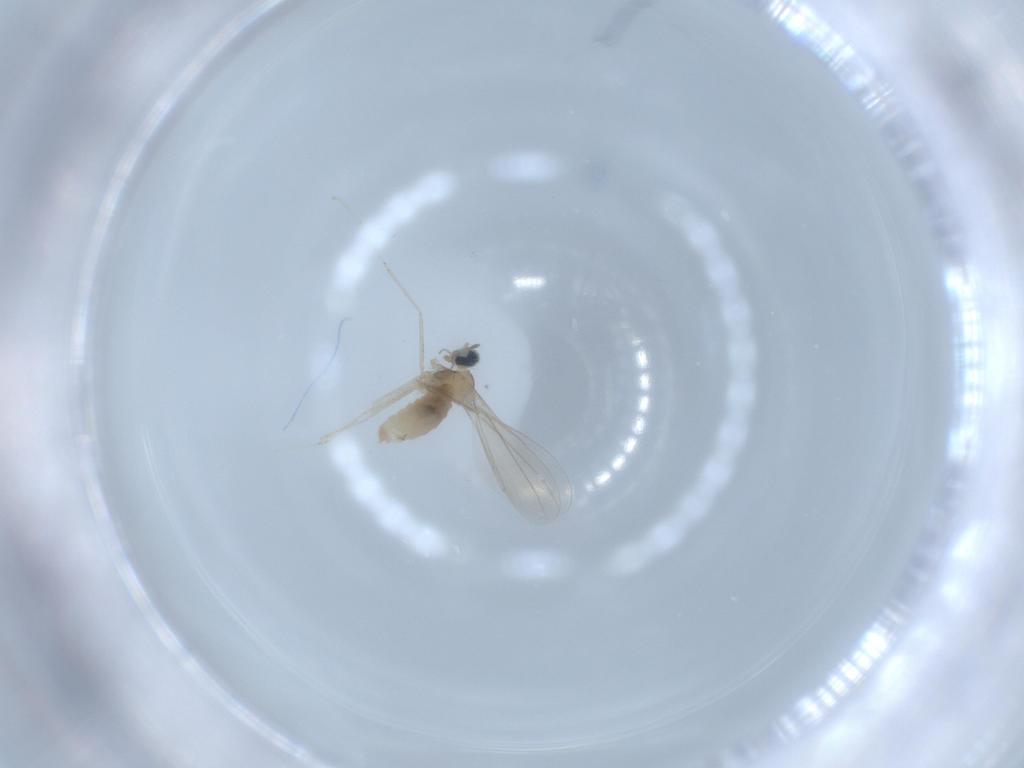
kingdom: Animalia
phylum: Arthropoda
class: Insecta
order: Diptera
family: Cecidomyiidae
